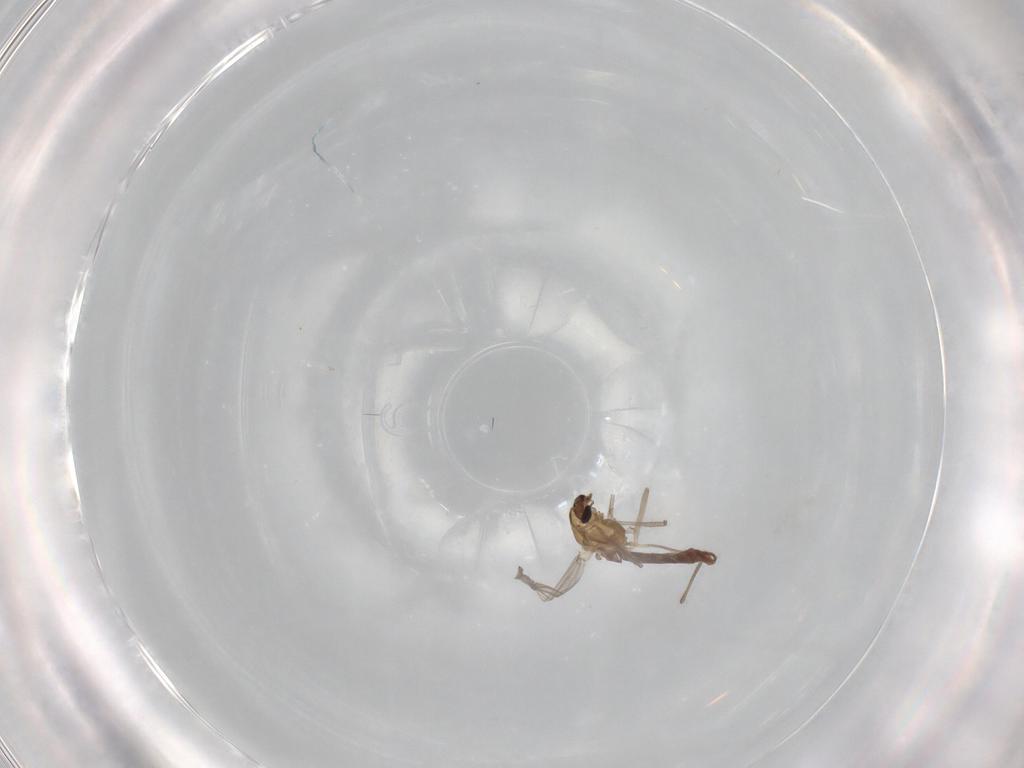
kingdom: Animalia
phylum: Arthropoda
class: Insecta
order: Diptera
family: Chironomidae
